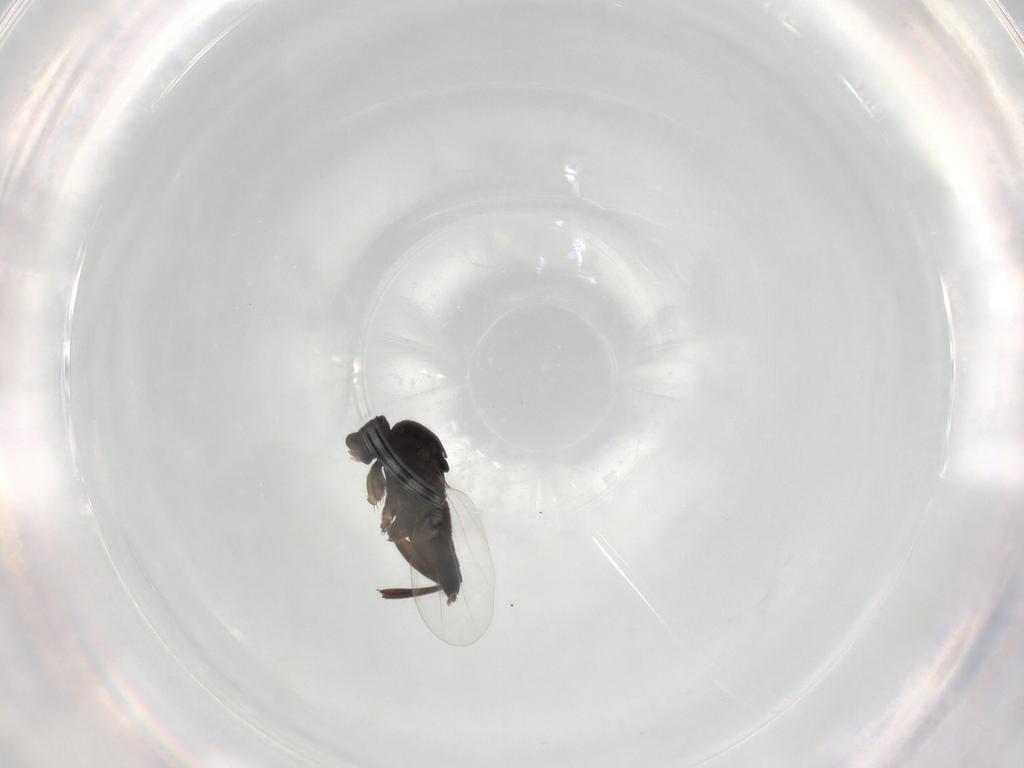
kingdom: Animalia
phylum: Arthropoda
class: Insecta
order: Diptera
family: Phoridae
